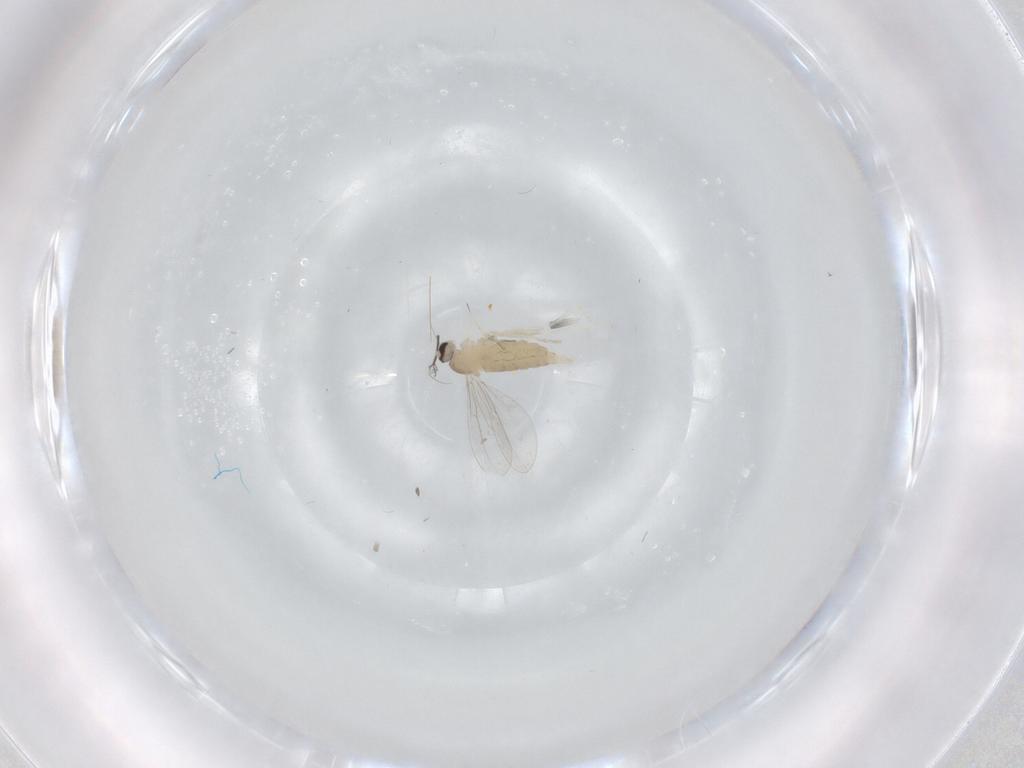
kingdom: Animalia
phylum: Arthropoda
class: Insecta
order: Diptera
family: Cecidomyiidae
